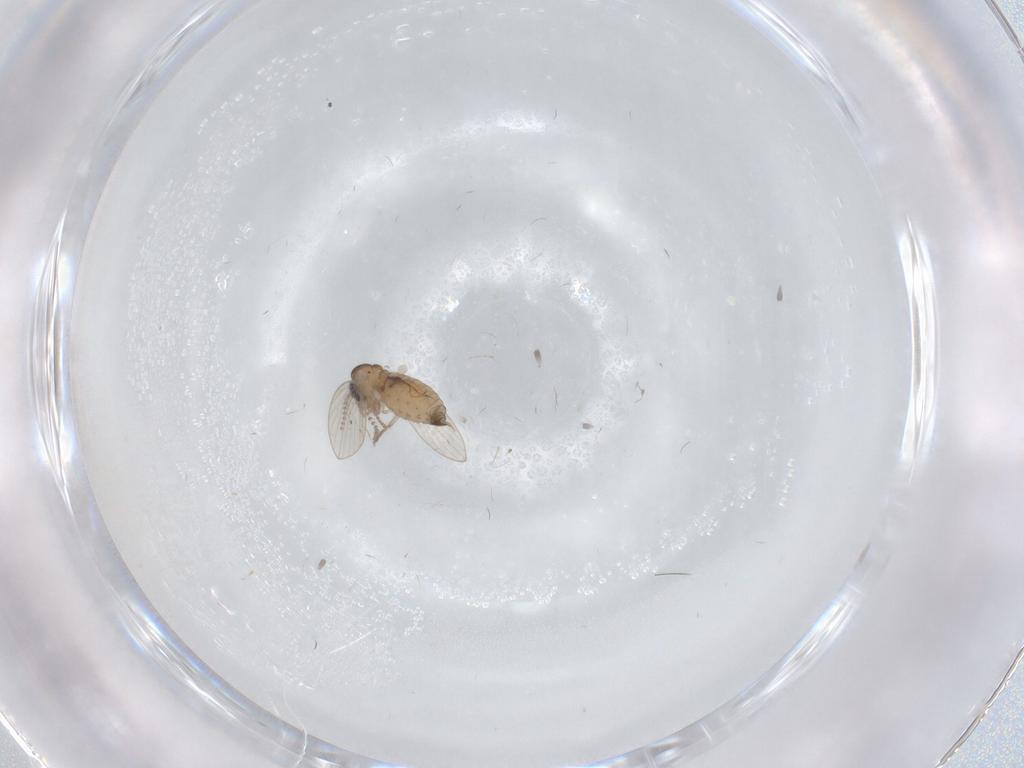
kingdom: Animalia
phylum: Arthropoda
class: Insecta
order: Diptera
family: Psychodidae
